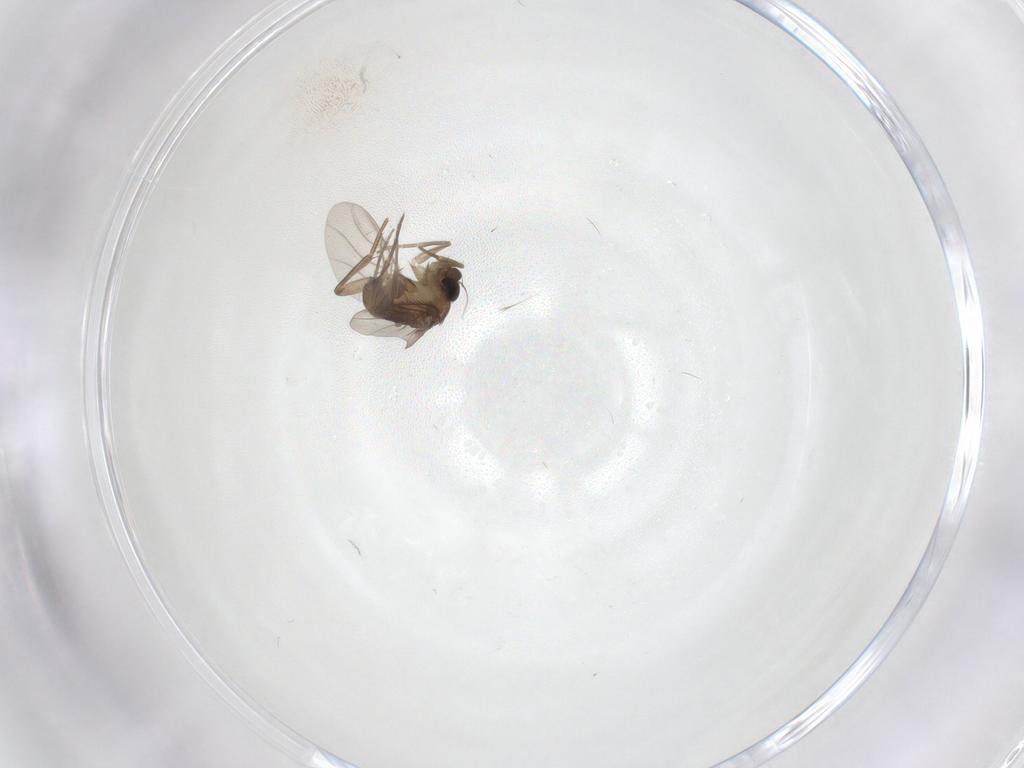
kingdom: Animalia
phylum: Arthropoda
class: Insecta
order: Diptera
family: Phoridae
